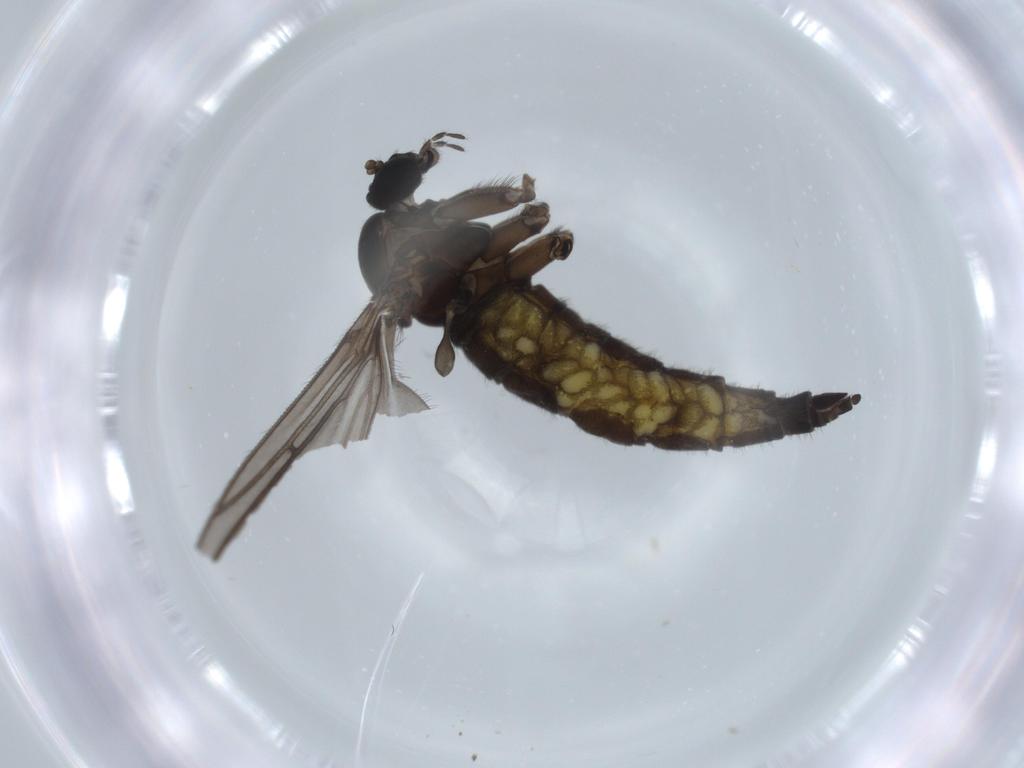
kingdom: Animalia
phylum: Arthropoda
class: Insecta
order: Diptera
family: Sciaridae
